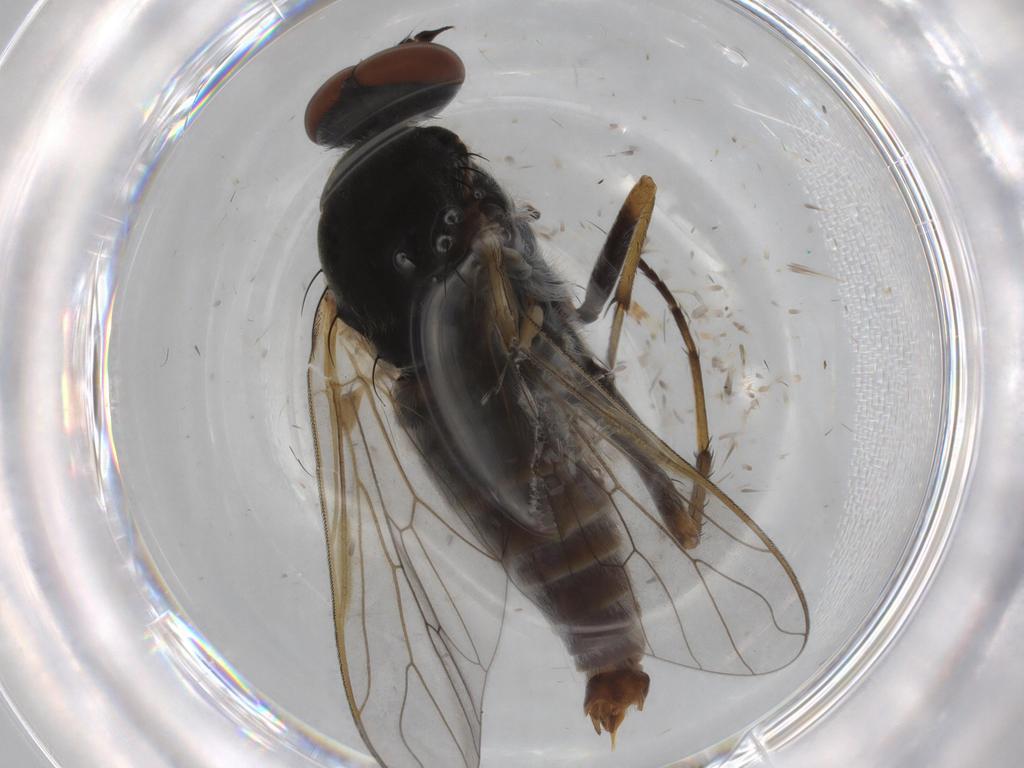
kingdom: Animalia
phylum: Arthropoda
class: Insecta
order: Diptera
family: Therevidae
